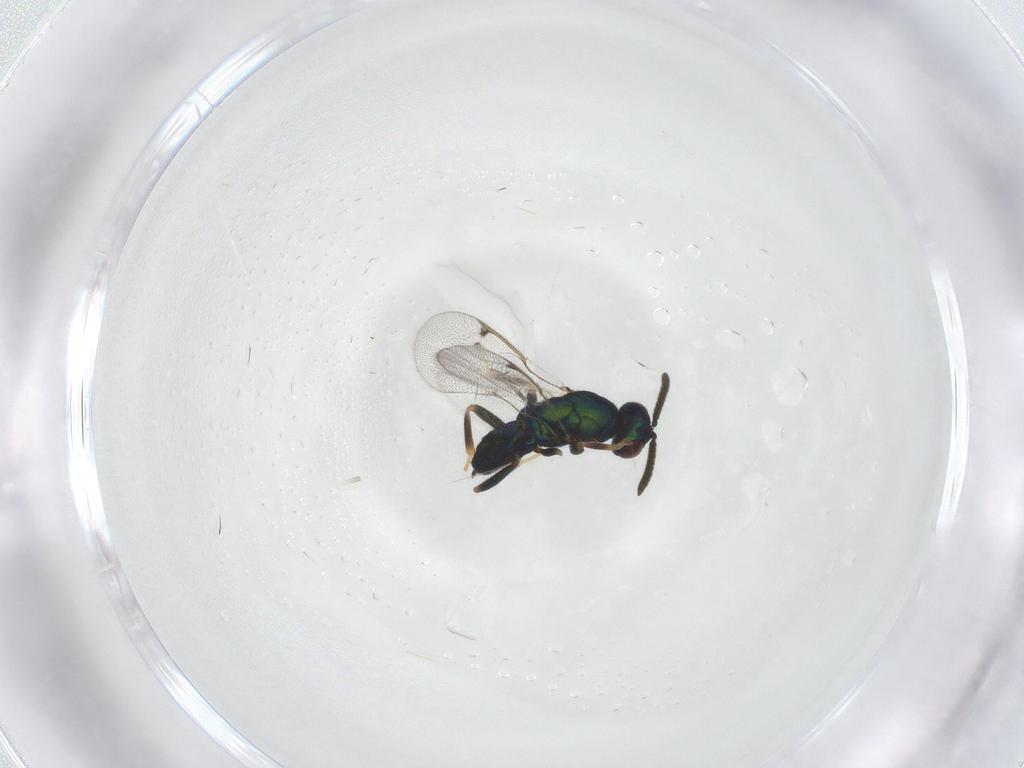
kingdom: Animalia
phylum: Arthropoda
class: Insecta
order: Hymenoptera
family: Torymidae
